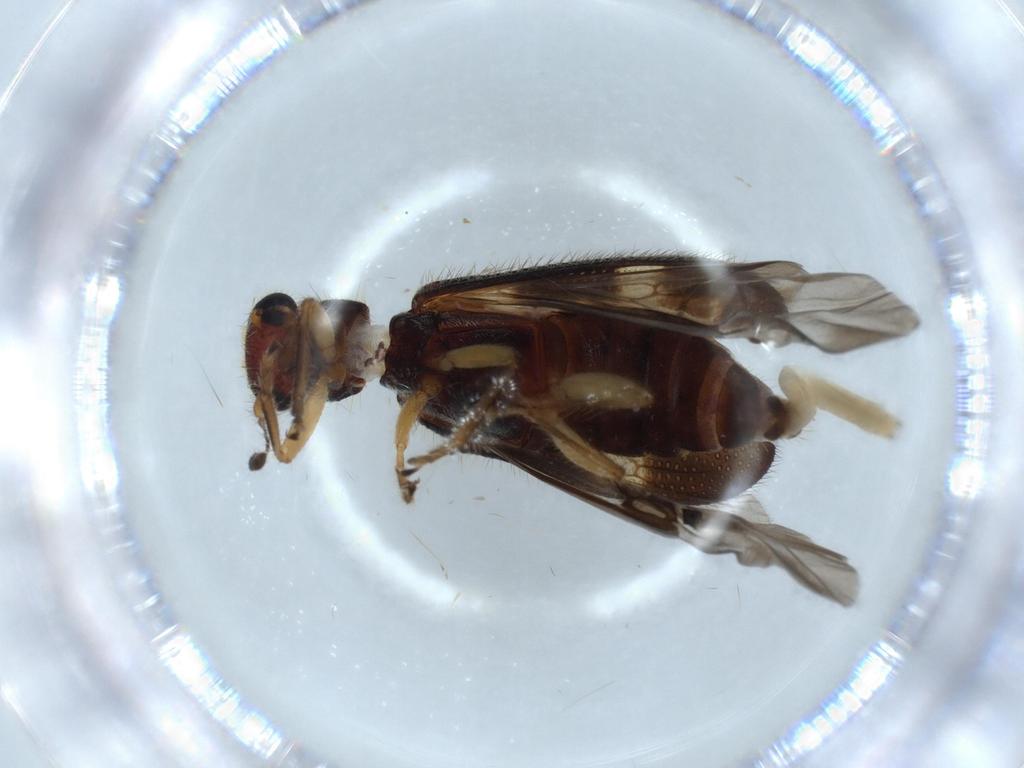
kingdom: Animalia
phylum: Arthropoda
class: Insecta
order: Coleoptera
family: Cleridae
